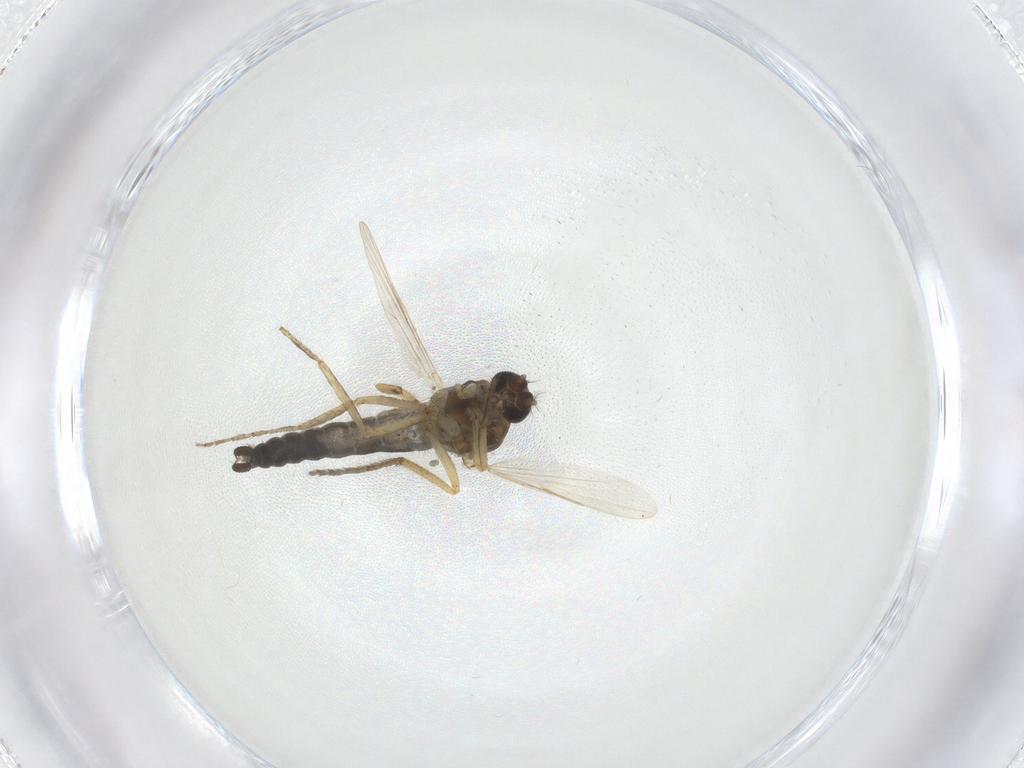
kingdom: Animalia
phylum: Arthropoda
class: Insecta
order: Diptera
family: Ceratopogonidae
